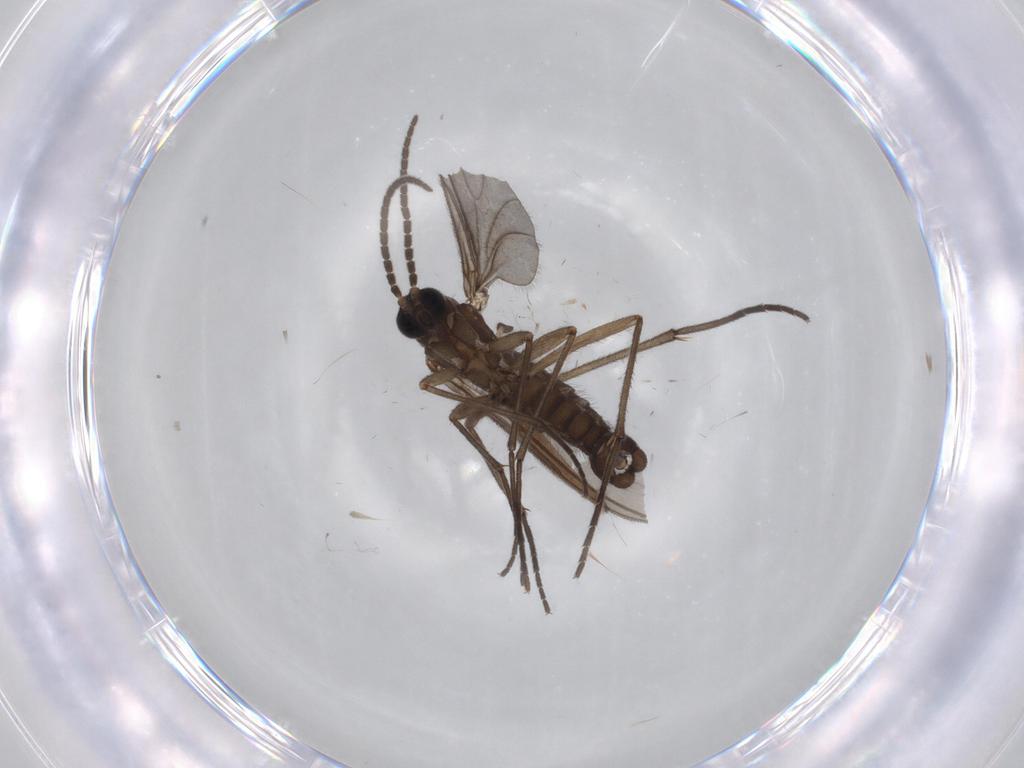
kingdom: Animalia
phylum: Arthropoda
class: Insecta
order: Diptera
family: Sciaridae
